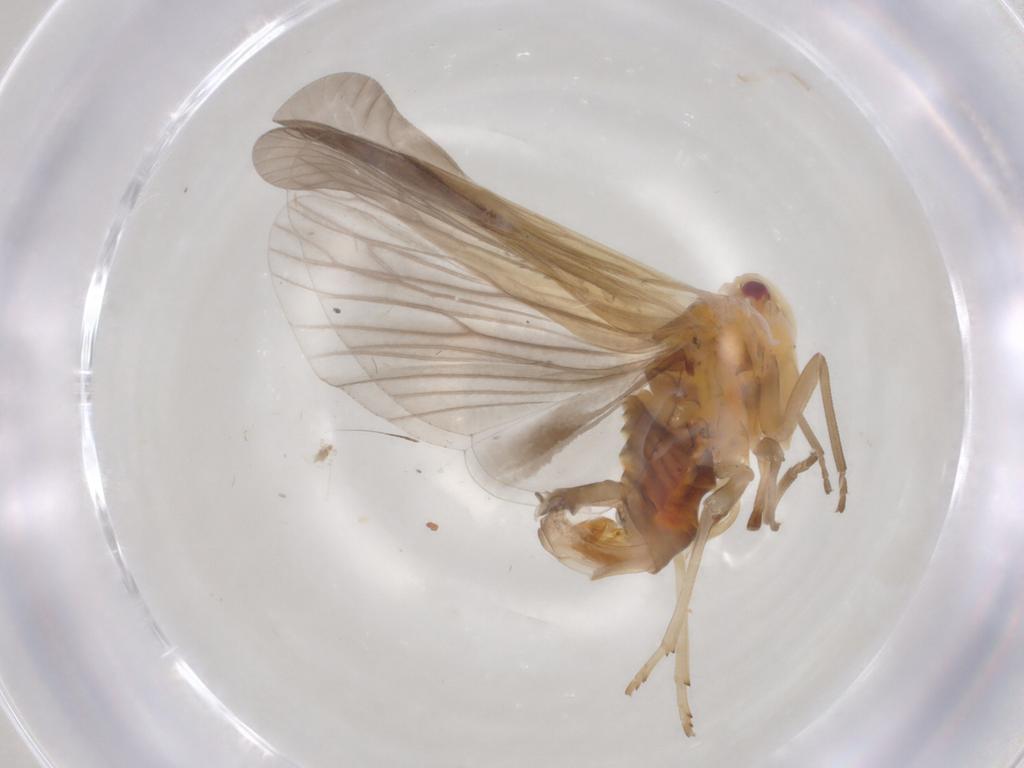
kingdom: Animalia
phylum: Arthropoda
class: Insecta
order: Hemiptera
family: Derbidae
